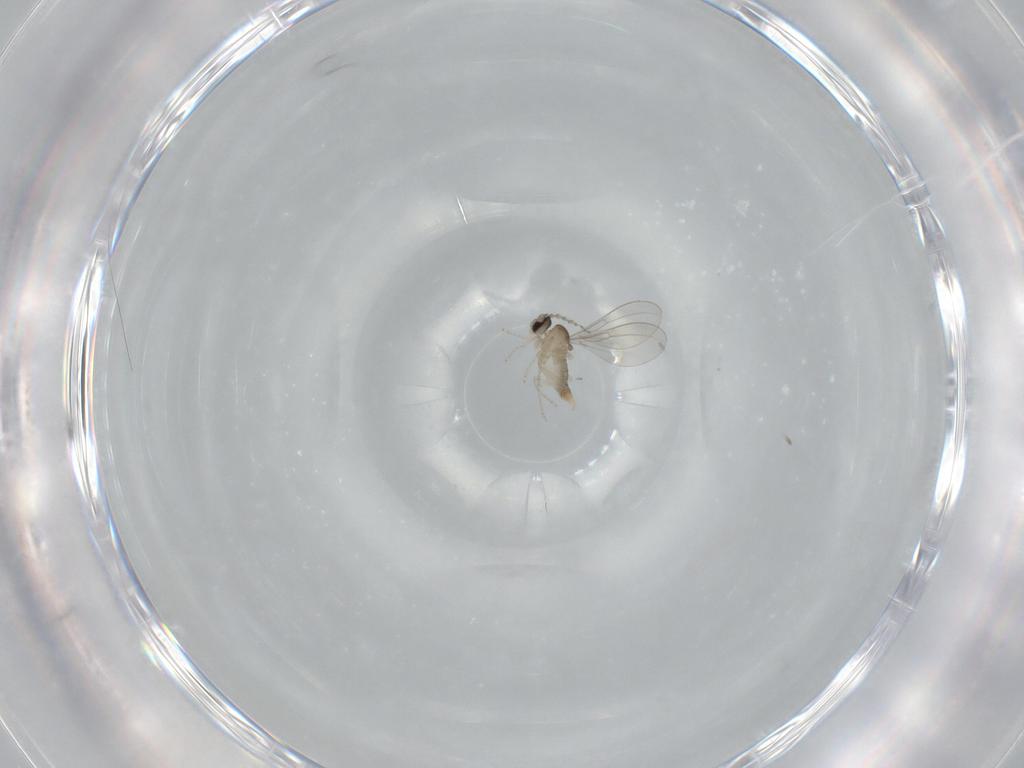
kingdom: Animalia
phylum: Arthropoda
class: Insecta
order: Diptera
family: Cecidomyiidae
